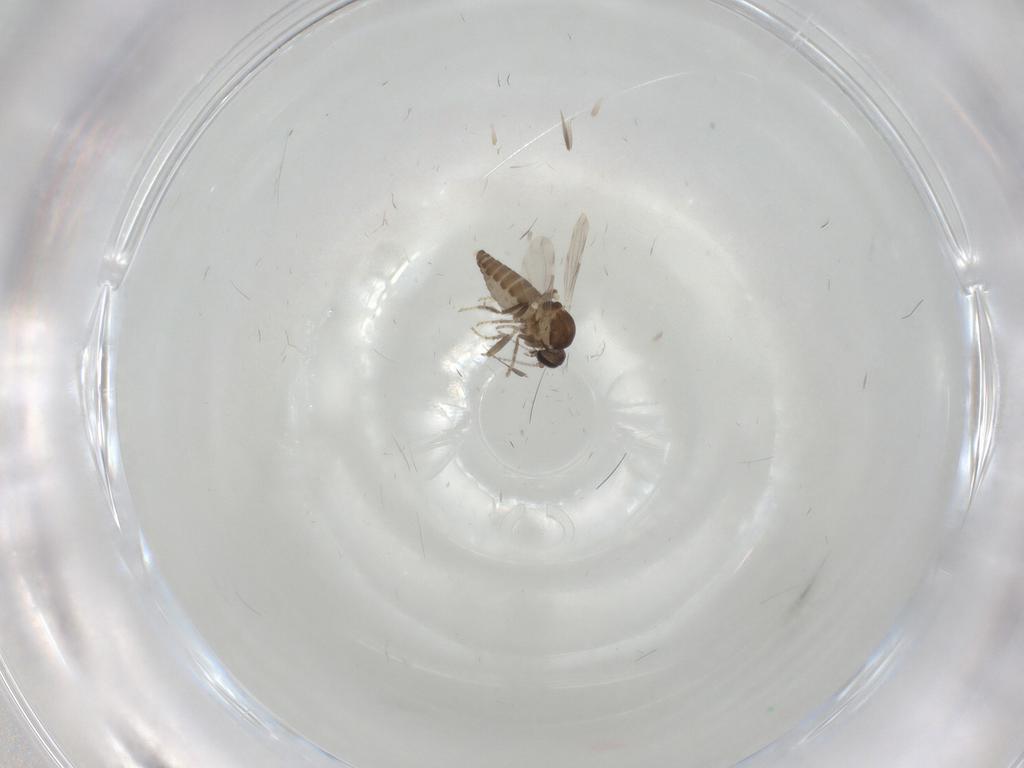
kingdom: Animalia
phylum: Arthropoda
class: Insecta
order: Diptera
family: Ceratopogonidae
